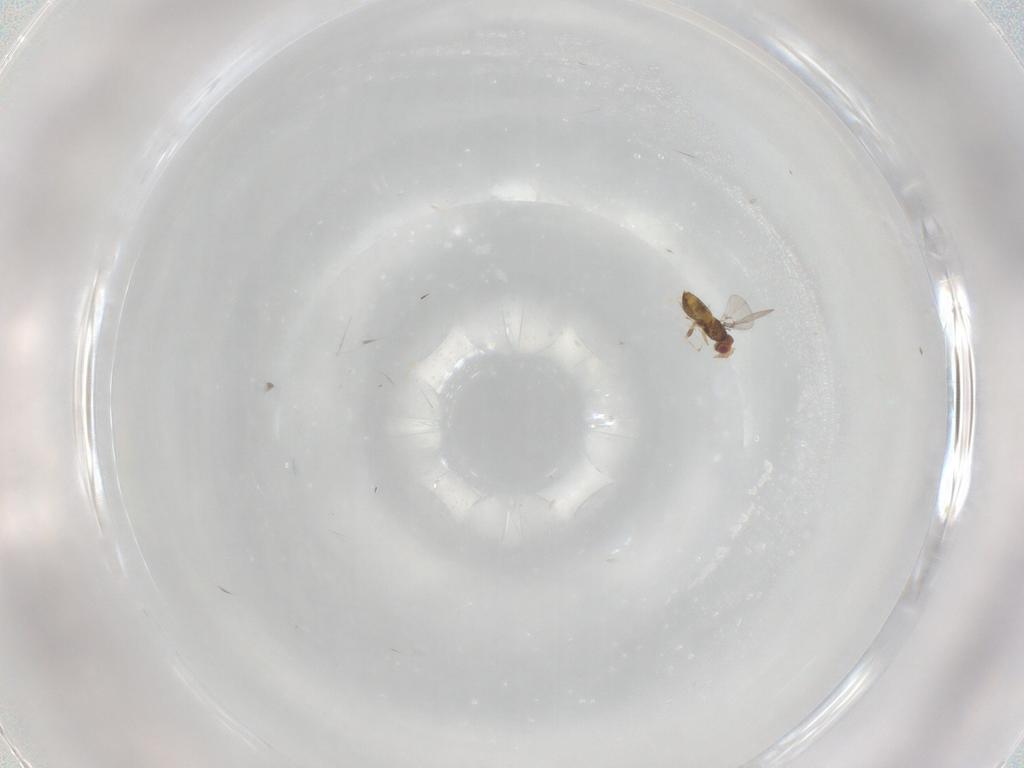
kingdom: Animalia
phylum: Arthropoda
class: Insecta
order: Hymenoptera
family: Trichogrammatidae
